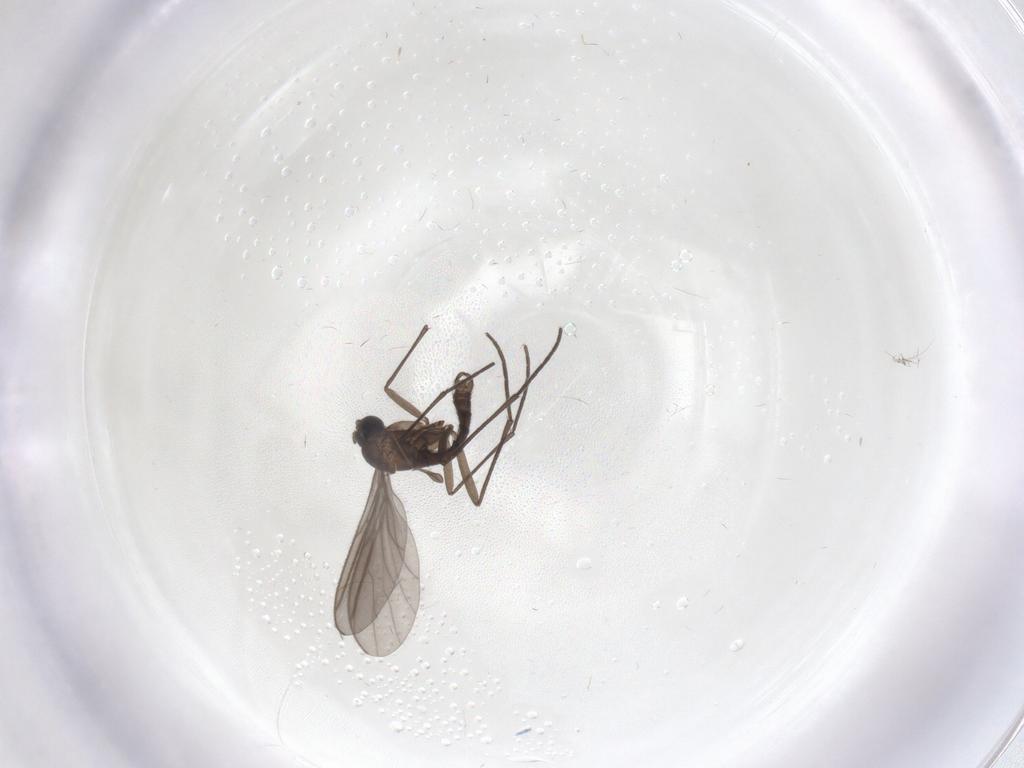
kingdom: Animalia
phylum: Arthropoda
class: Insecta
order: Diptera
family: Sciaridae
